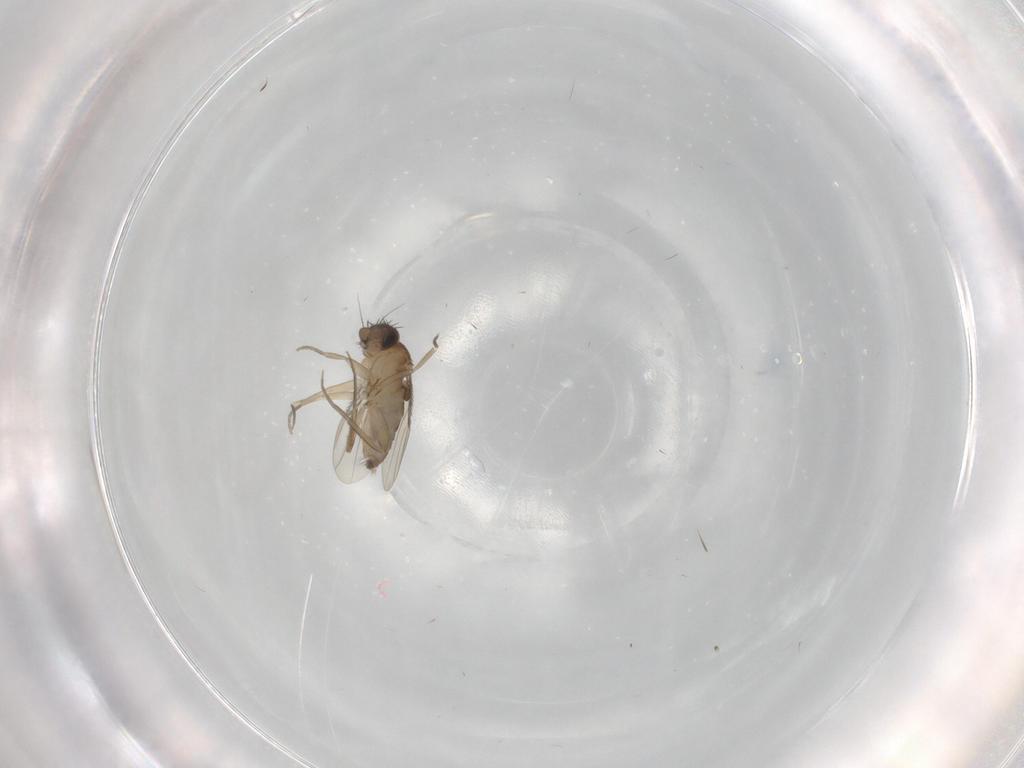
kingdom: Animalia
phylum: Arthropoda
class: Insecta
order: Diptera
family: Phoridae
